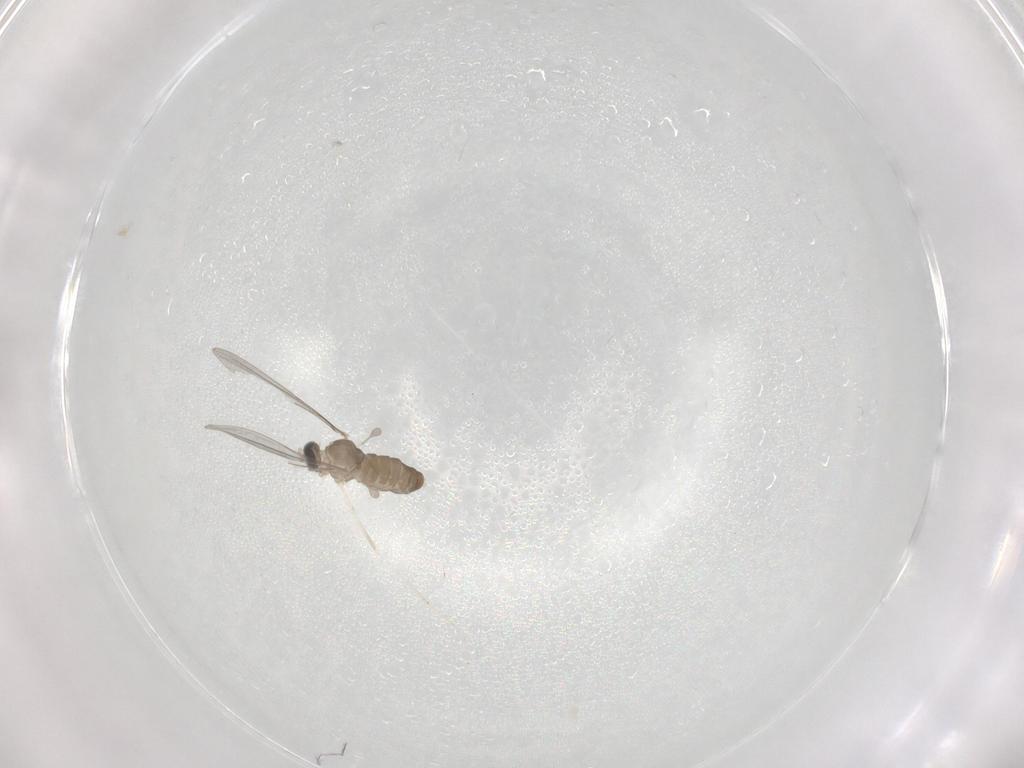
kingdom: Animalia
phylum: Arthropoda
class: Insecta
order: Diptera
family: Cecidomyiidae
